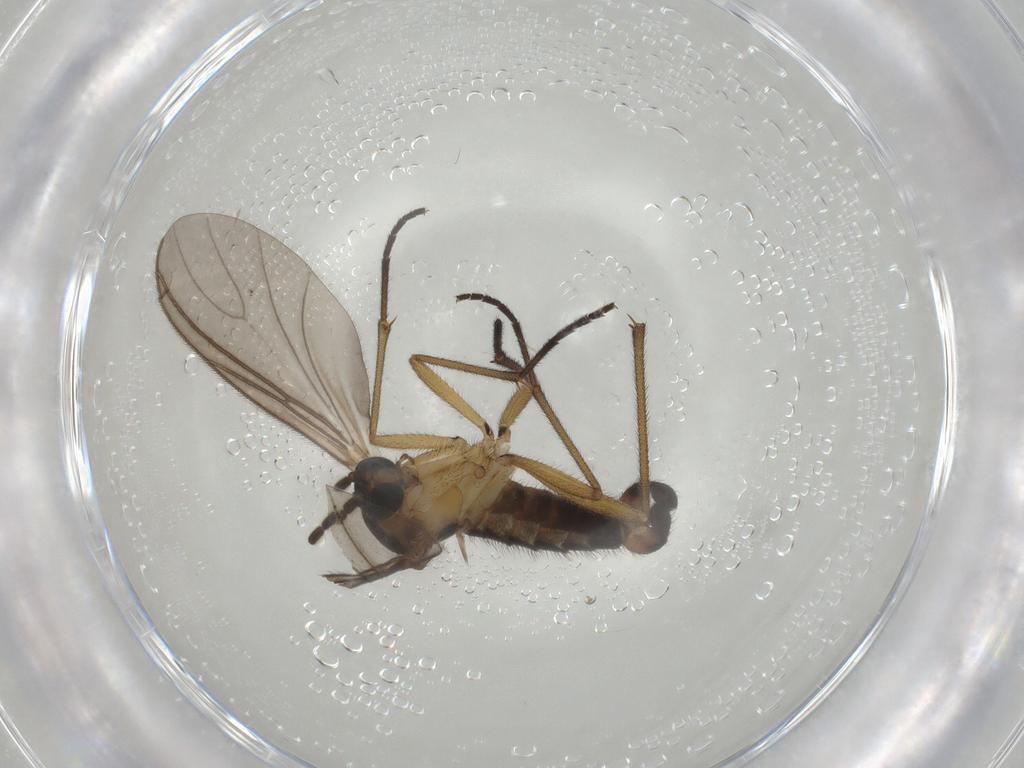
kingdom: Animalia
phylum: Arthropoda
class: Insecta
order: Diptera
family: Sciaridae
